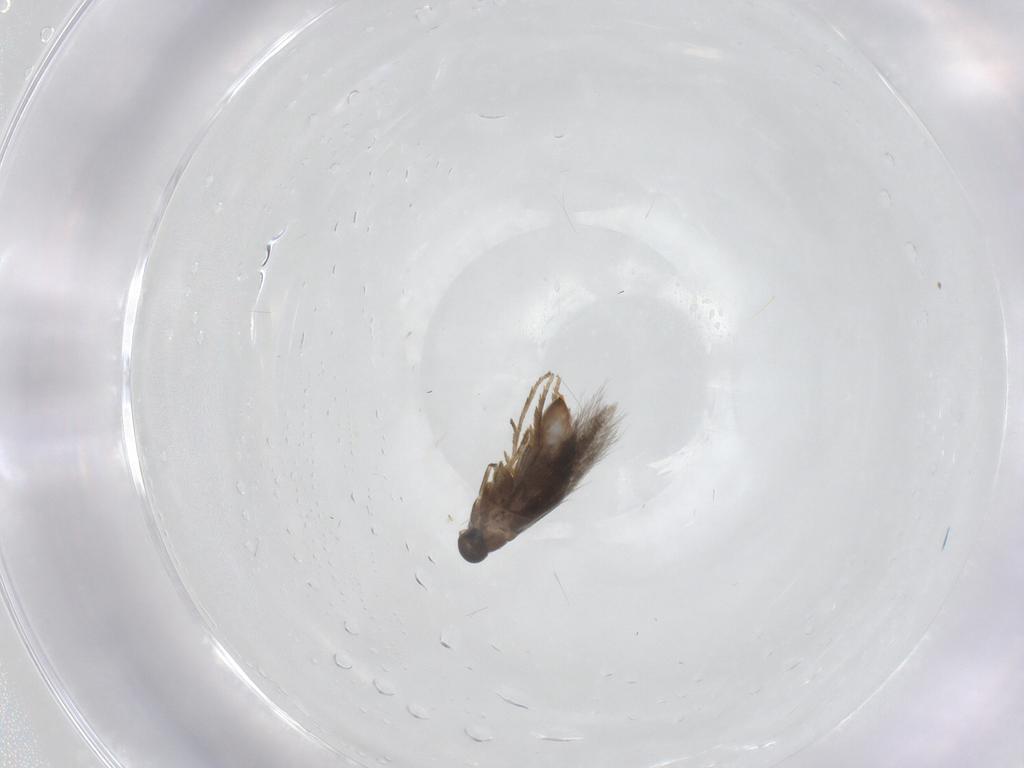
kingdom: Animalia
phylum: Arthropoda
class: Insecta
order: Lepidoptera
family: Heliozelidae
